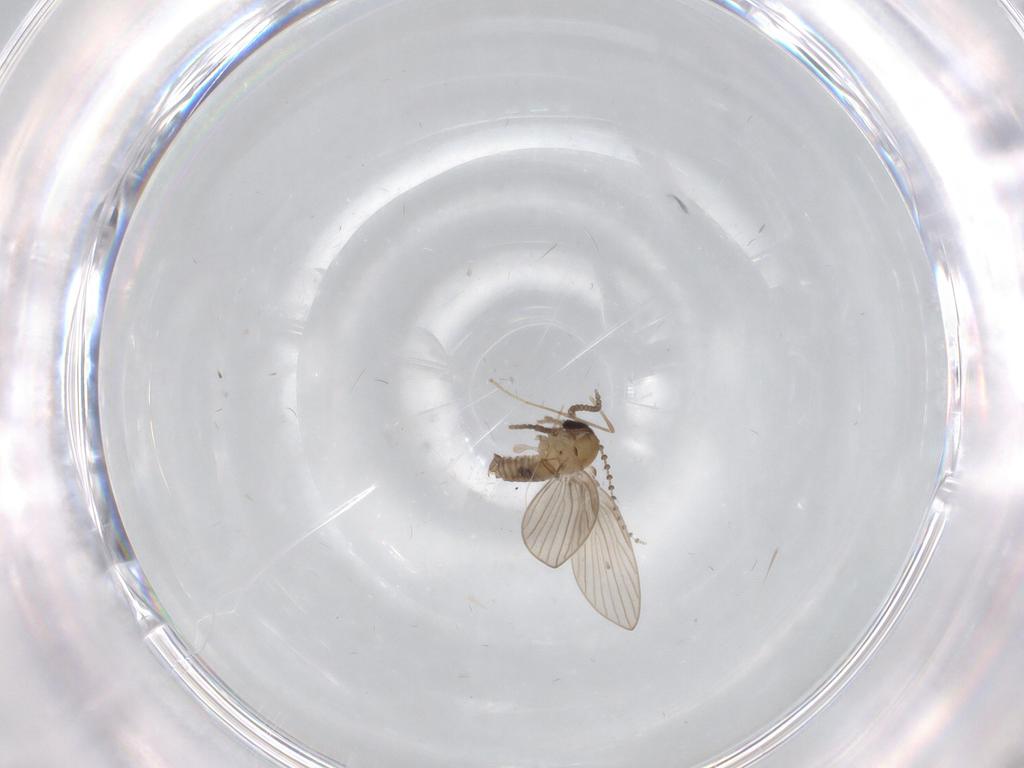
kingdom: Animalia
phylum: Arthropoda
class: Insecta
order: Diptera
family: Psychodidae
